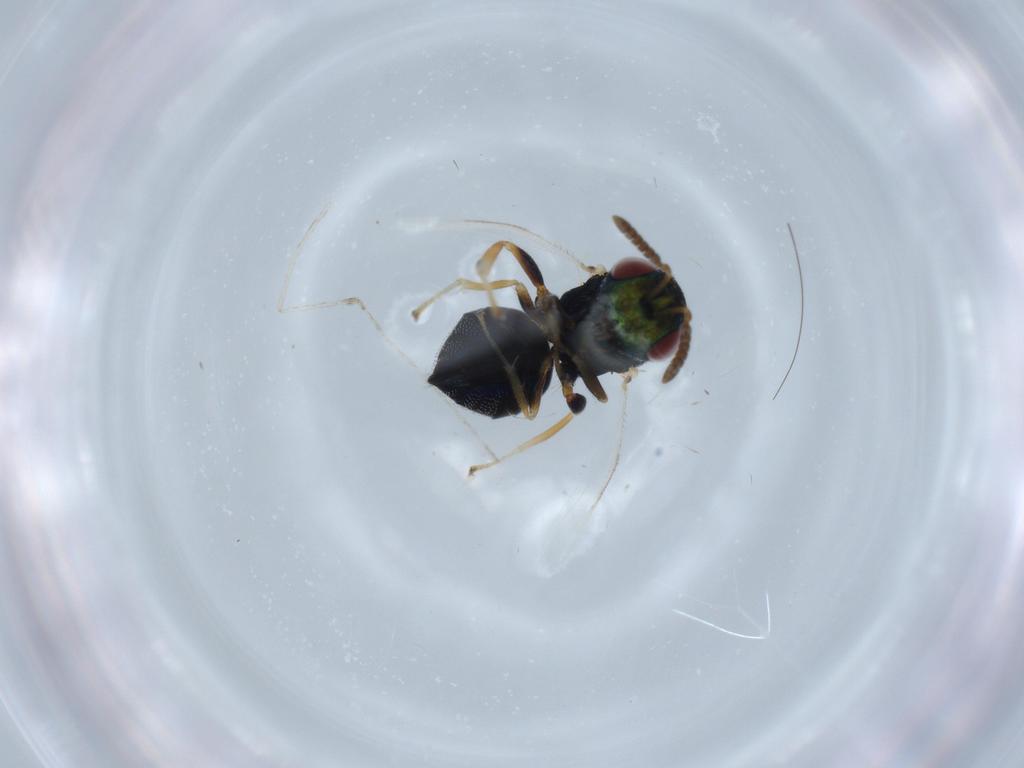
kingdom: Animalia
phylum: Arthropoda
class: Insecta
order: Hymenoptera
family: Pteromalidae
